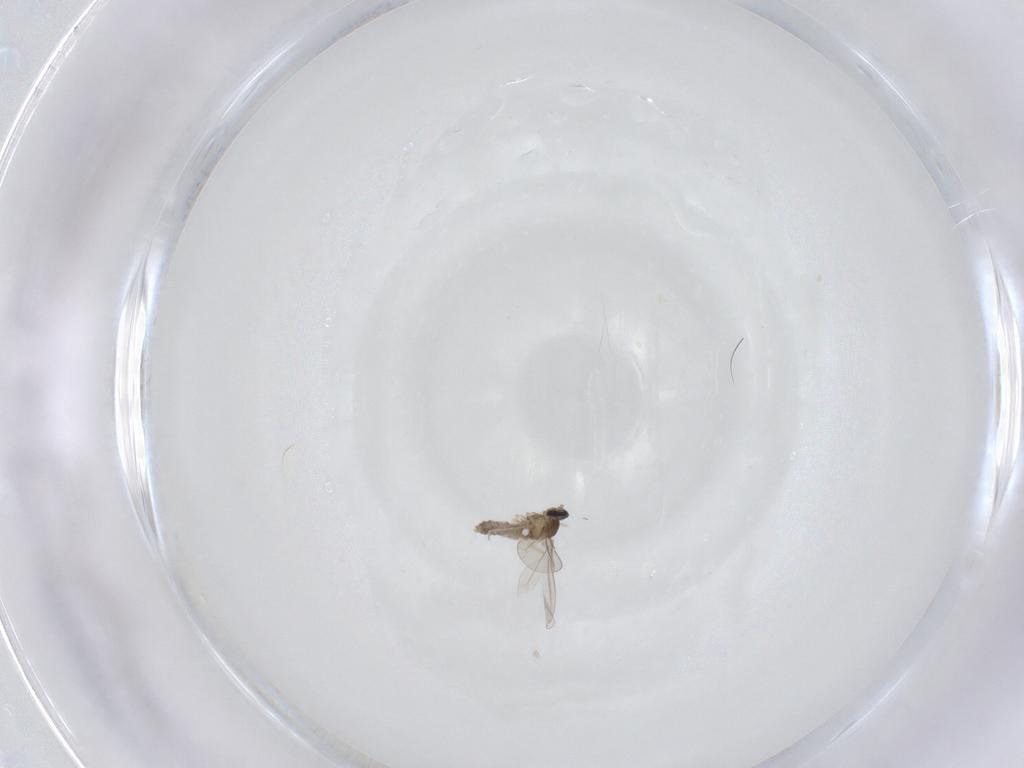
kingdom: Animalia
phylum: Arthropoda
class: Insecta
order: Diptera
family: Cecidomyiidae
